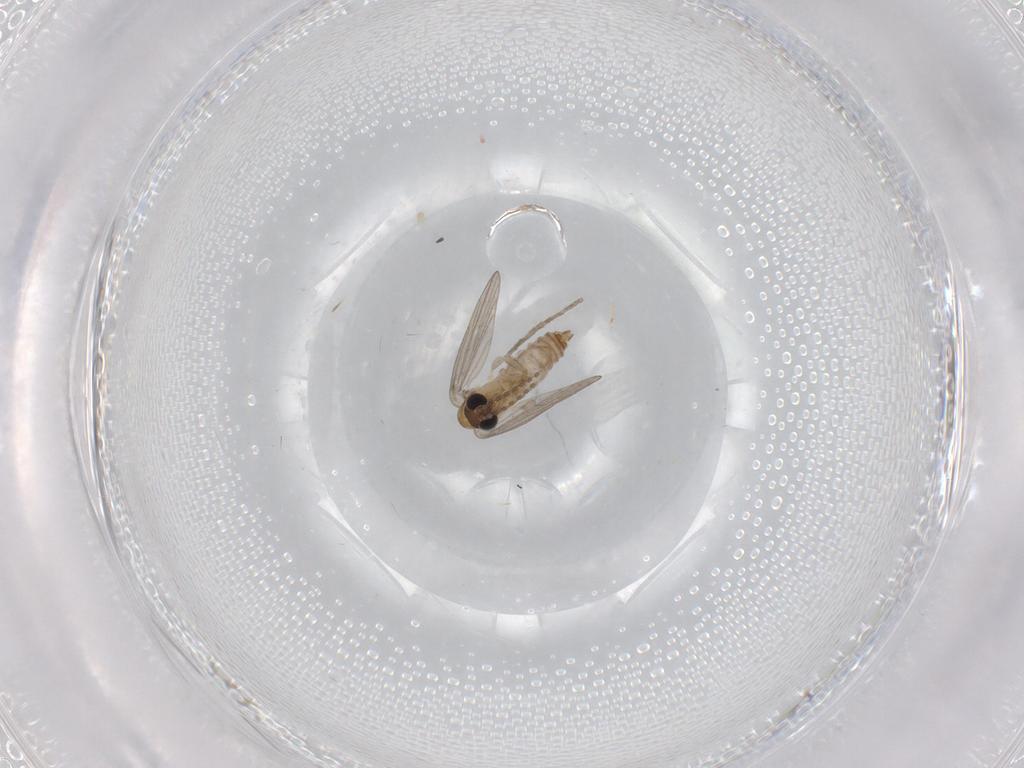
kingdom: Animalia
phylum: Arthropoda
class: Insecta
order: Diptera
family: Psychodidae
